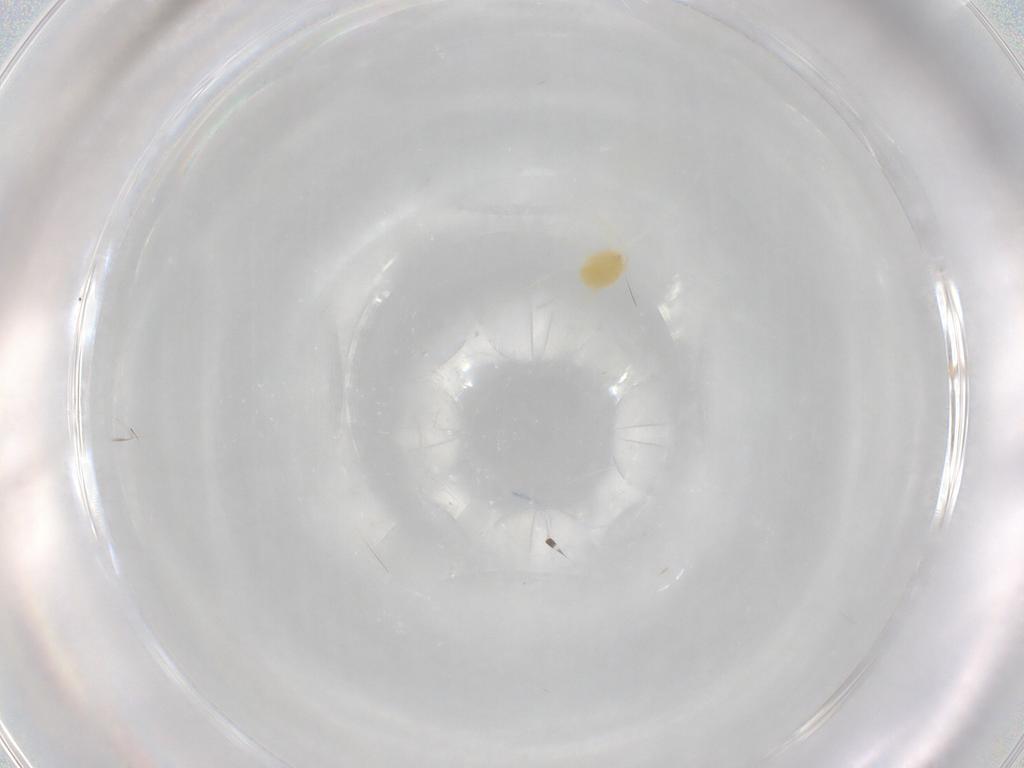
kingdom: Animalia
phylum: Arthropoda
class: Arachnida
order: Trombidiformes
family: Tetranychidae
